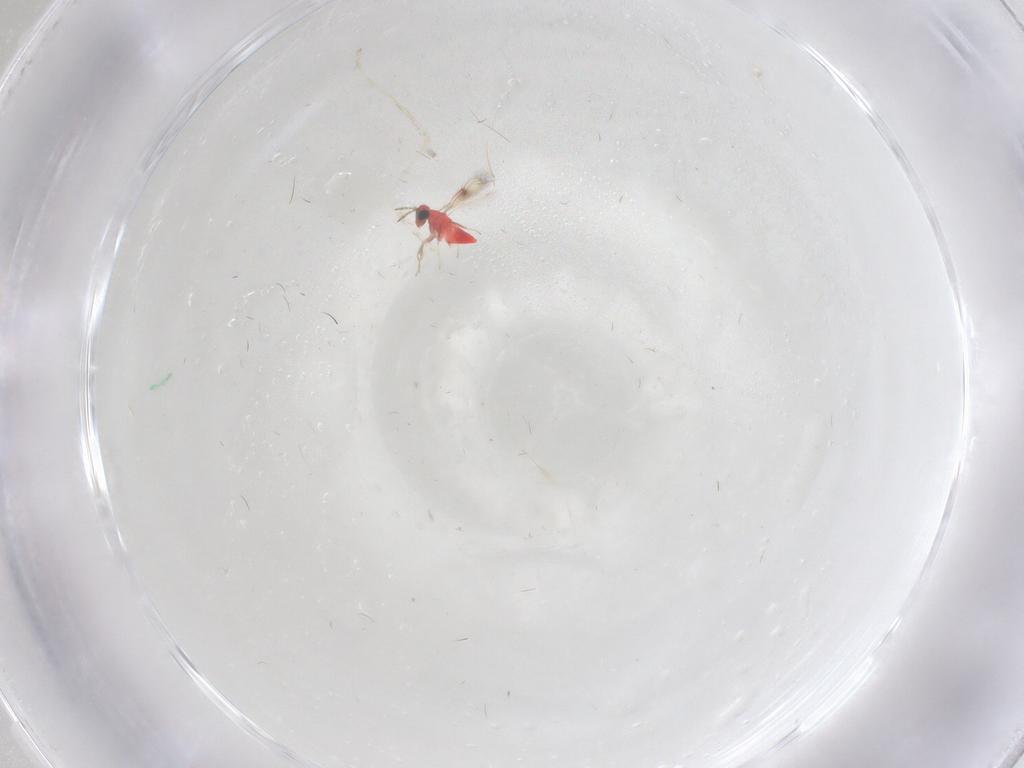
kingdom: Animalia
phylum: Arthropoda
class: Insecta
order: Hymenoptera
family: Trichogrammatidae
